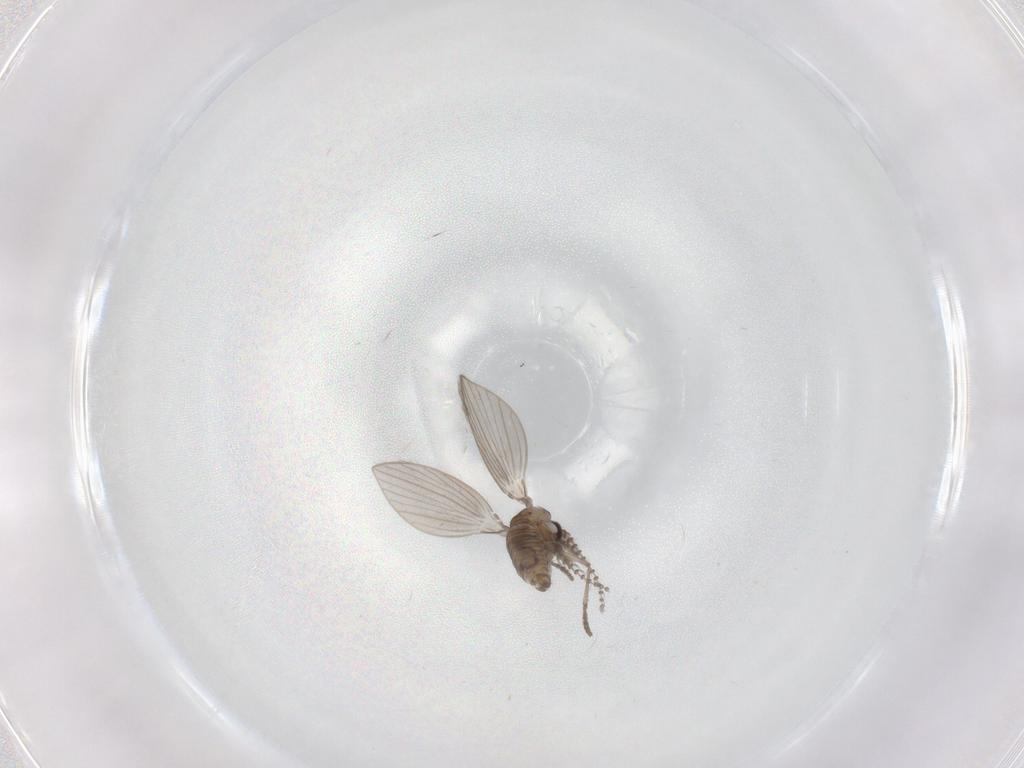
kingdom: Animalia
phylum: Arthropoda
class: Insecta
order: Diptera
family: Psychodidae
